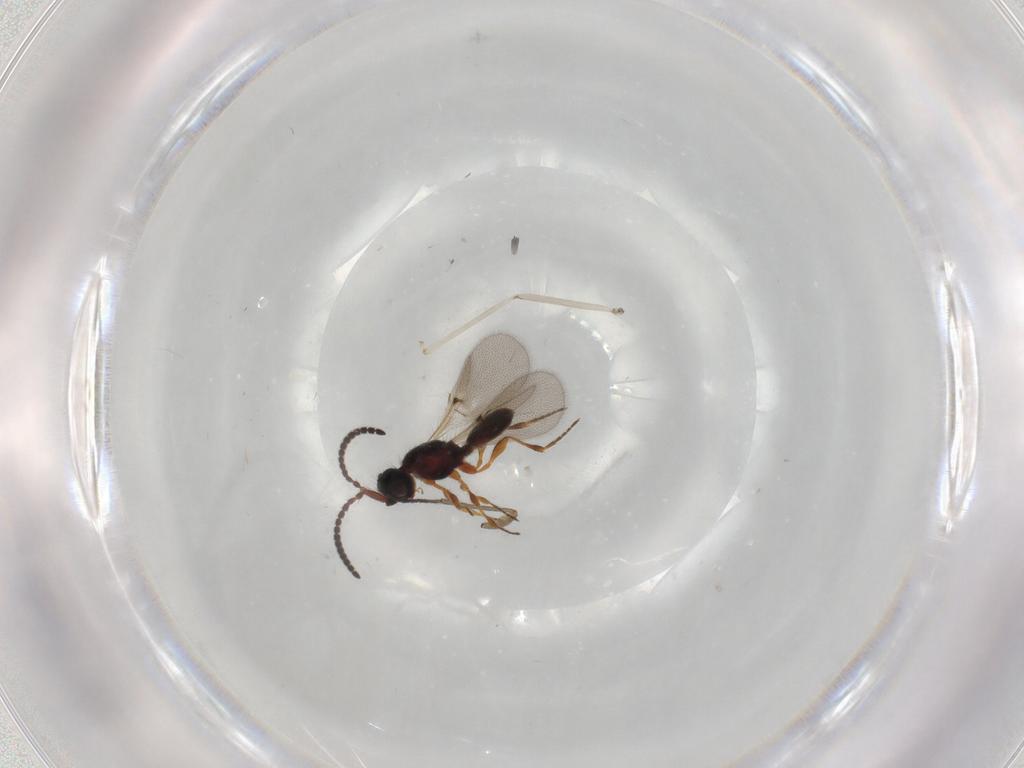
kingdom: Animalia
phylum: Arthropoda
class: Insecta
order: Hymenoptera
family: Diapriidae
